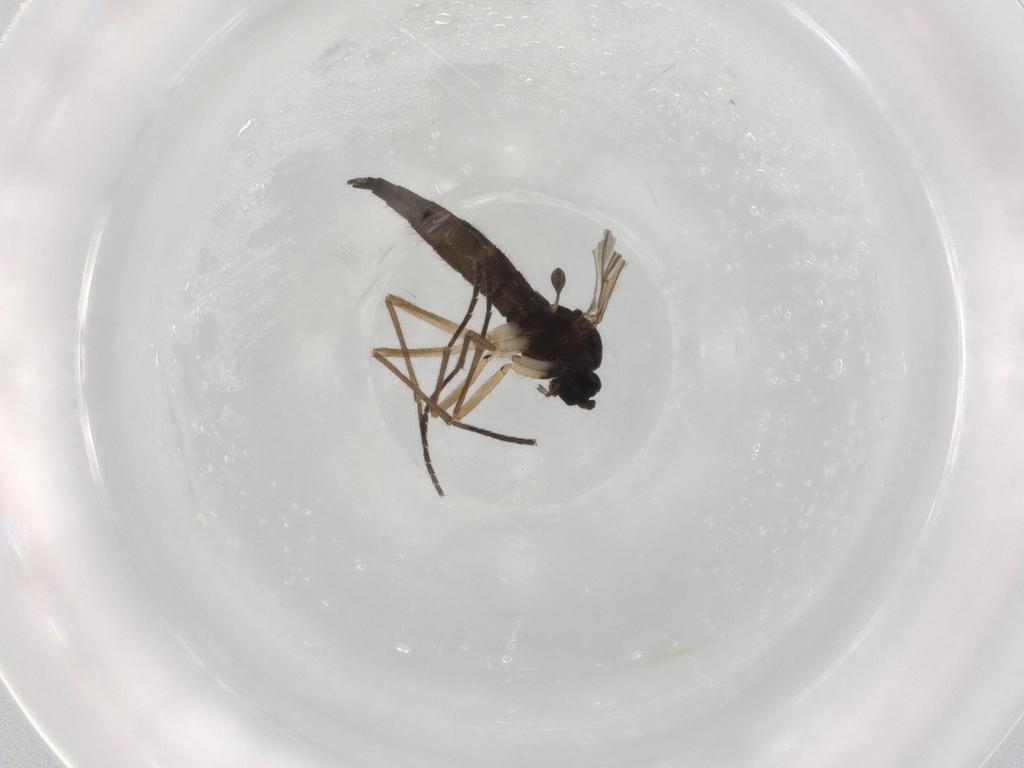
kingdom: Animalia
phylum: Arthropoda
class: Insecta
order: Diptera
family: Sciaridae
